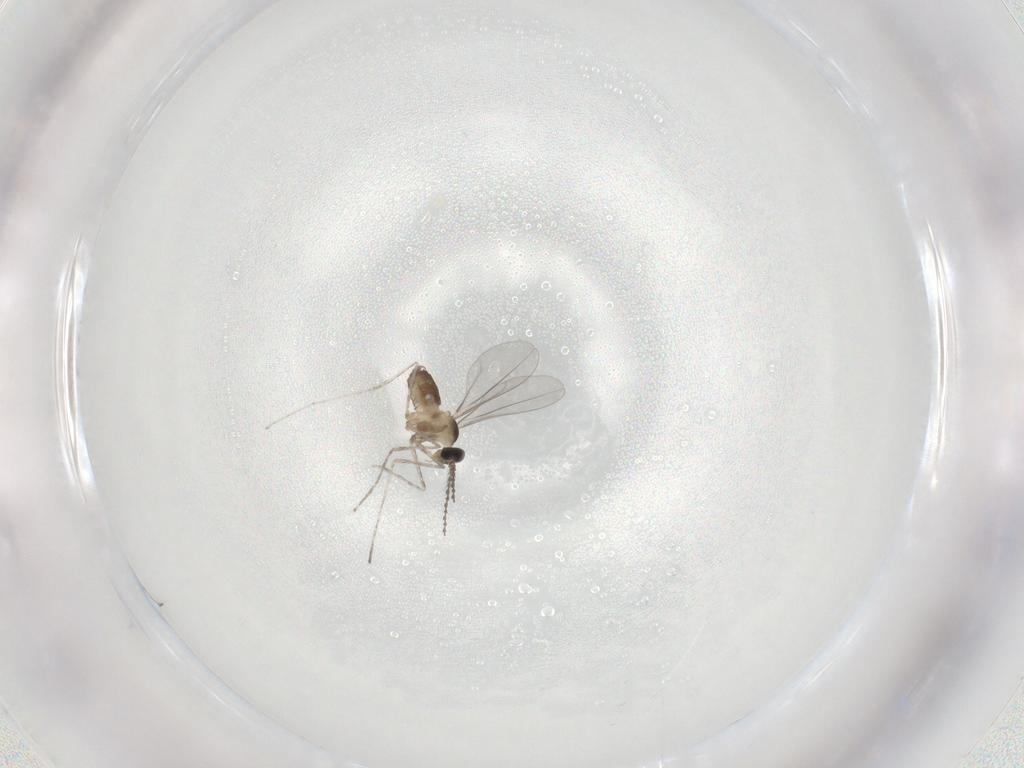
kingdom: Animalia
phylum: Arthropoda
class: Insecta
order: Diptera
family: Cecidomyiidae
